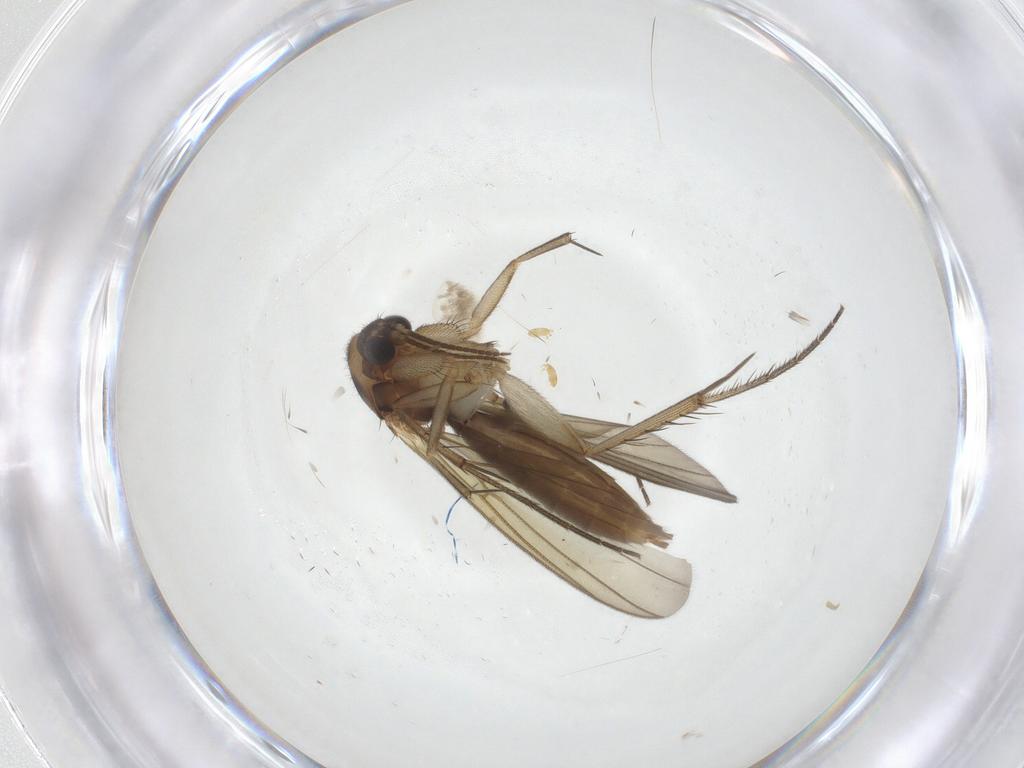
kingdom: Animalia
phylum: Arthropoda
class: Insecta
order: Diptera
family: Mycetophilidae
